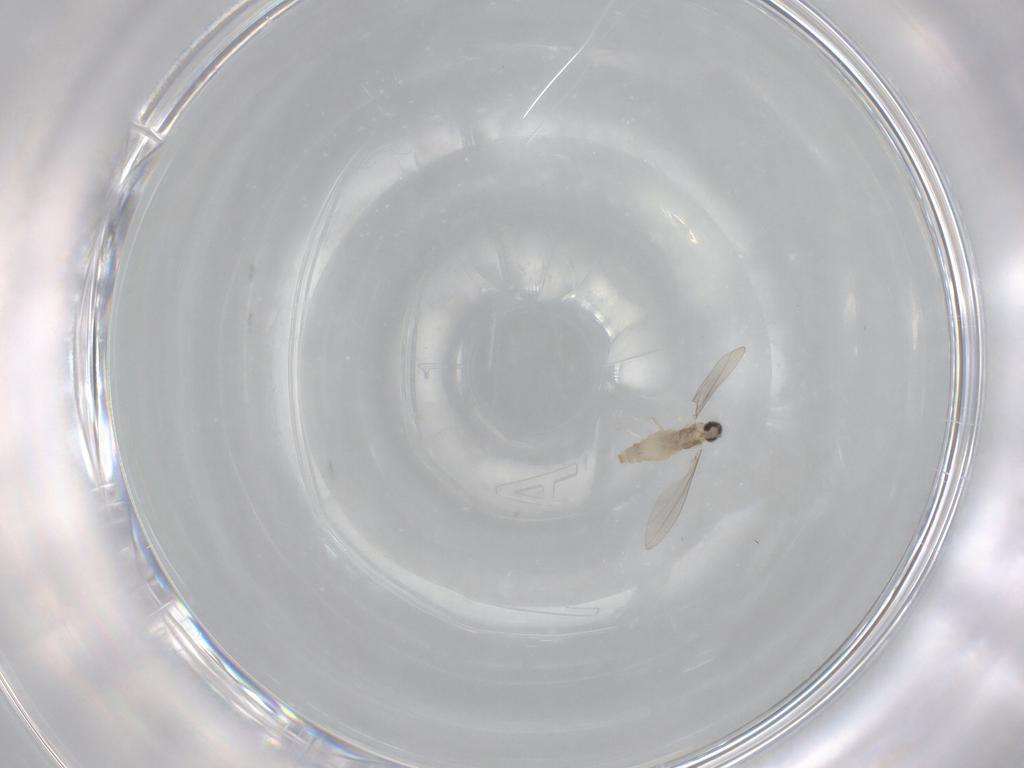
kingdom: Animalia
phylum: Arthropoda
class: Insecta
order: Diptera
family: Cecidomyiidae
